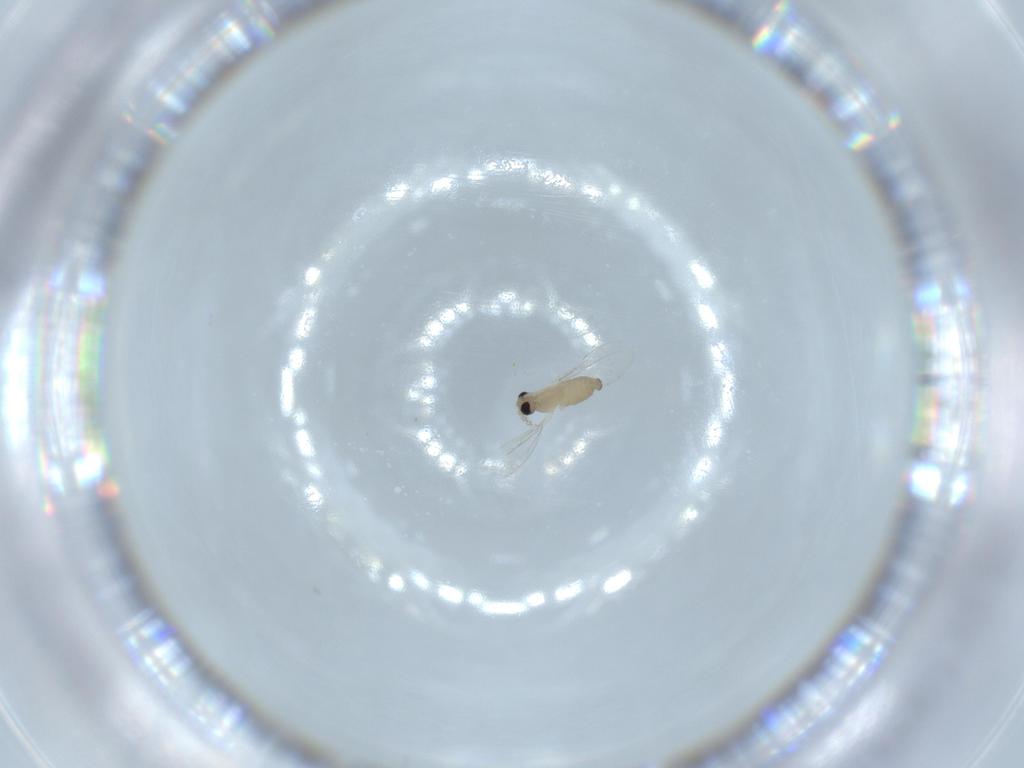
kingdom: Animalia
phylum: Arthropoda
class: Insecta
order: Diptera
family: Cecidomyiidae
